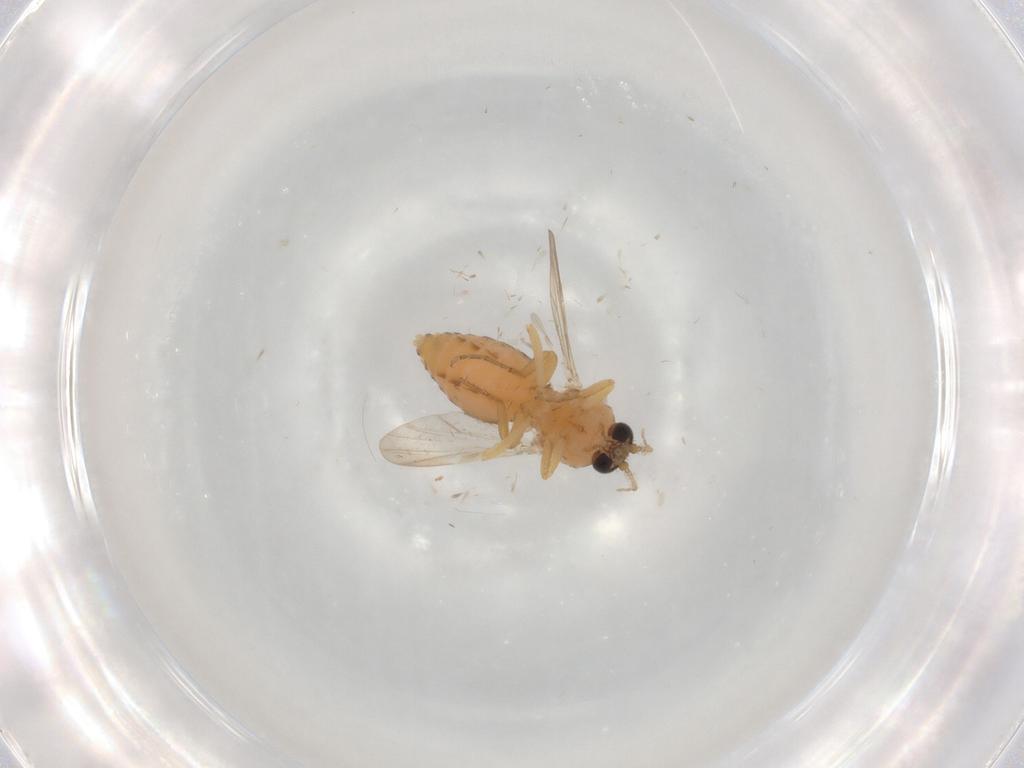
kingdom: Animalia
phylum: Arthropoda
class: Insecta
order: Diptera
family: Ceratopogonidae
